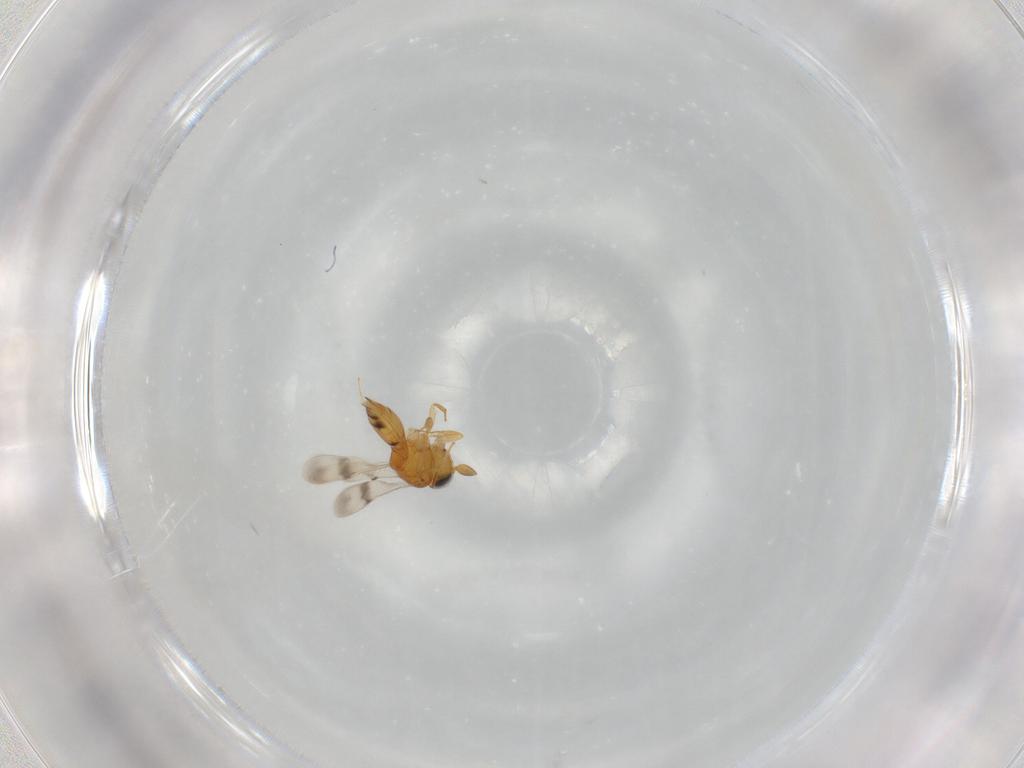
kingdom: Animalia
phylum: Arthropoda
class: Insecta
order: Hymenoptera
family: Scelionidae
